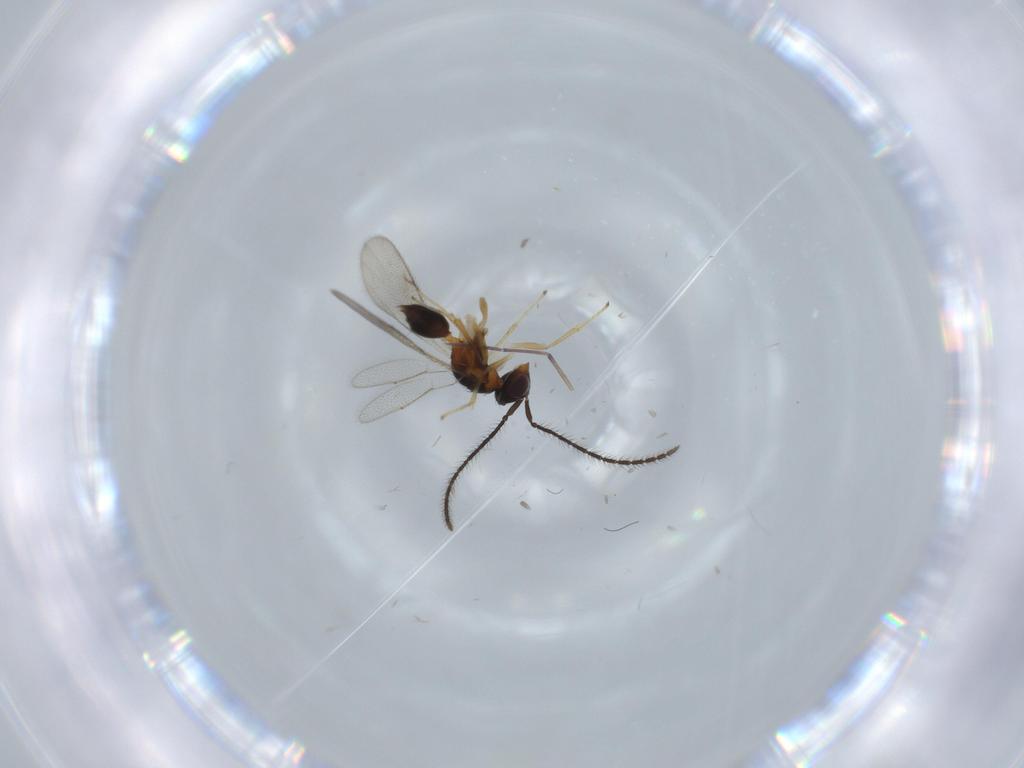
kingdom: Animalia
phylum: Arthropoda
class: Insecta
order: Hymenoptera
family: Diparidae
